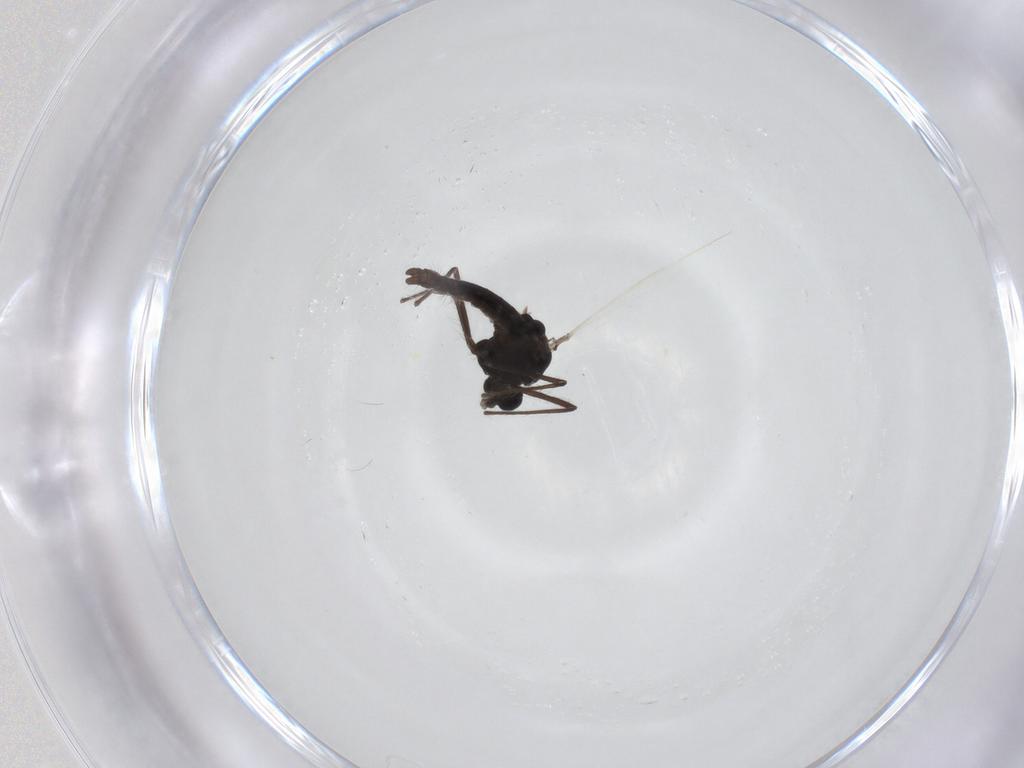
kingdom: Animalia
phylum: Arthropoda
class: Insecta
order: Diptera
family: Chironomidae
